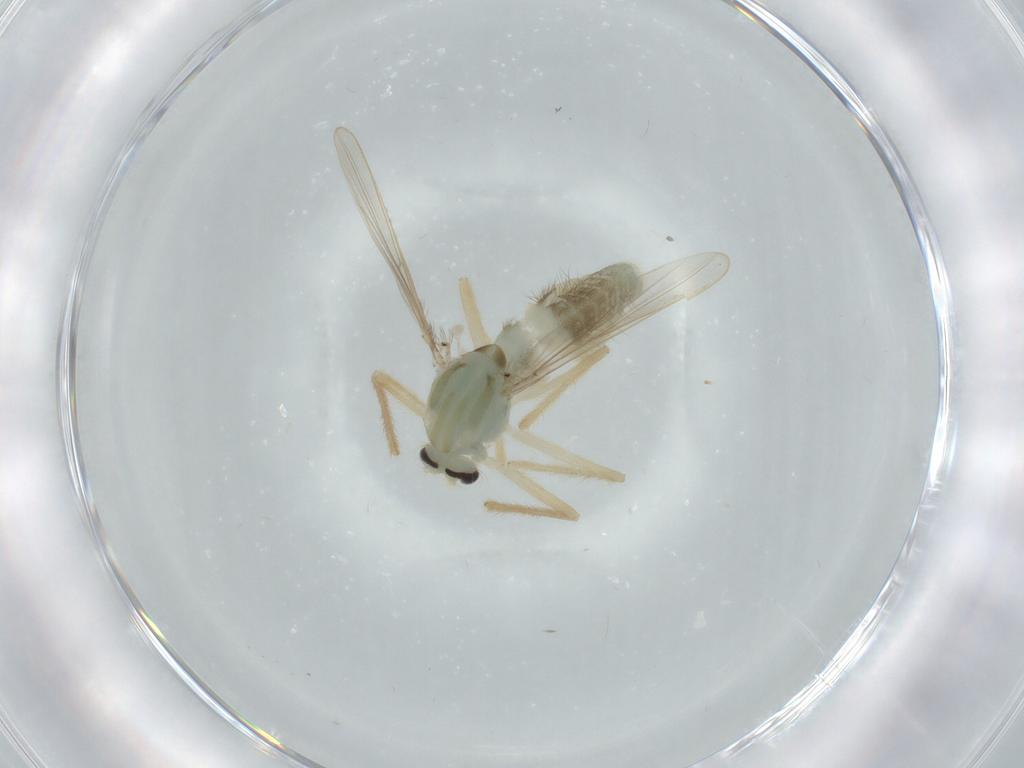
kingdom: Animalia
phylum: Arthropoda
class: Insecta
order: Diptera
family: Chironomidae
